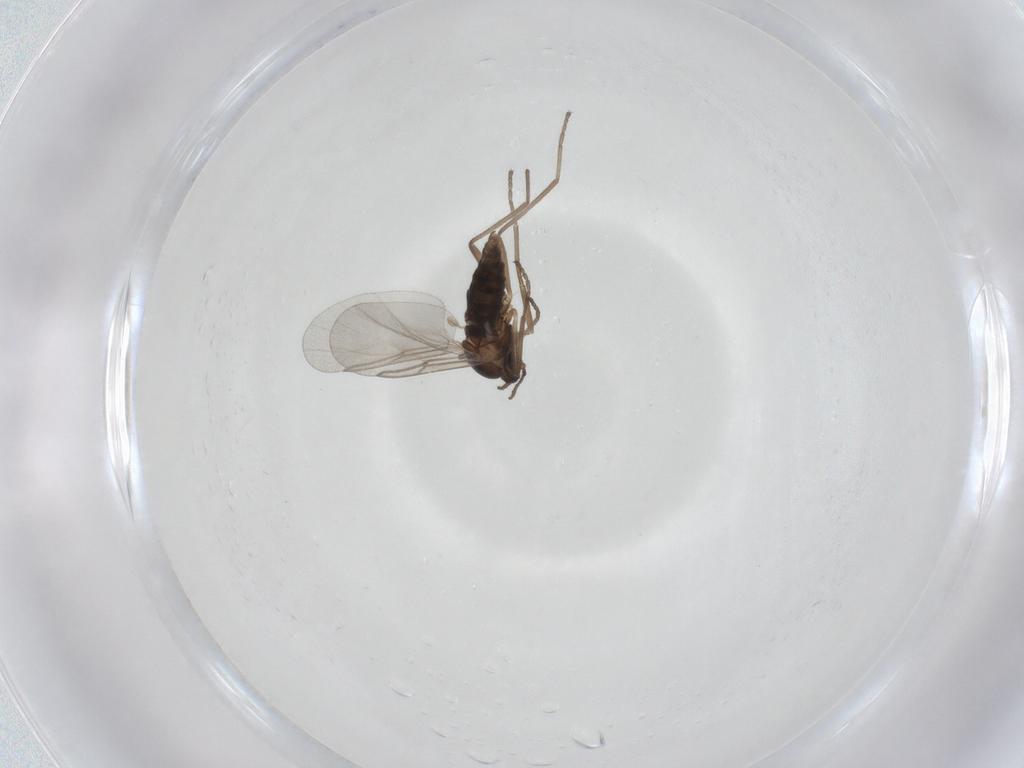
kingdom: Animalia
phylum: Arthropoda
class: Insecta
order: Diptera
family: Cecidomyiidae
